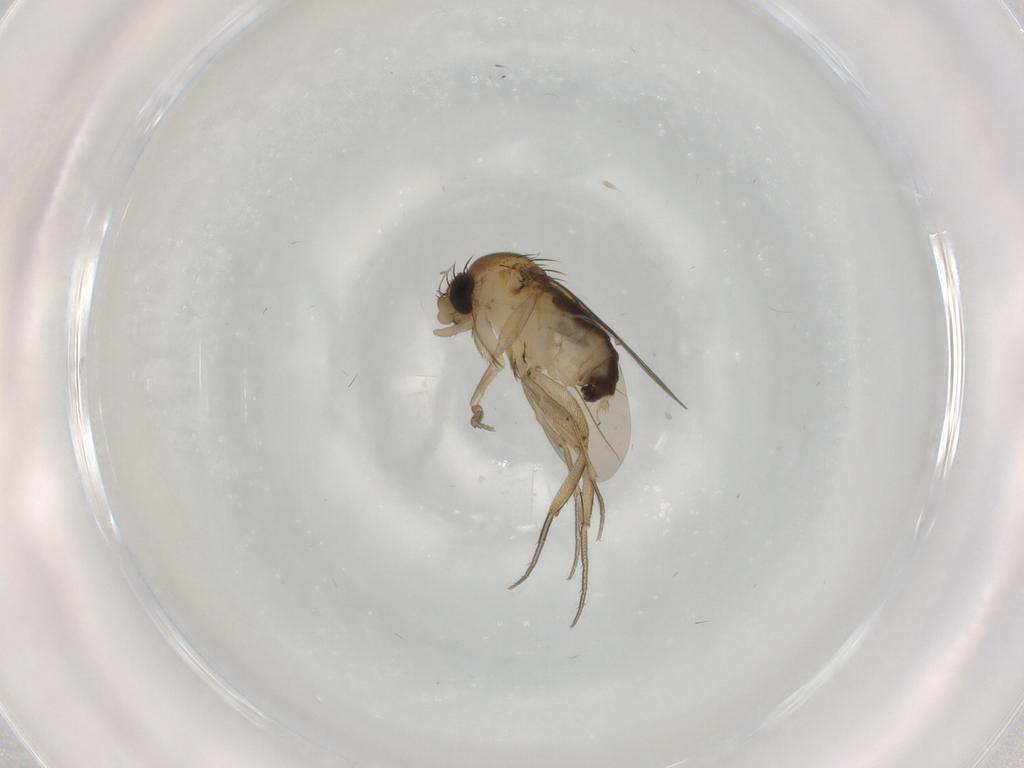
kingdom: Animalia
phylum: Arthropoda
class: Insecta
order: Diptera
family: Phoridae
